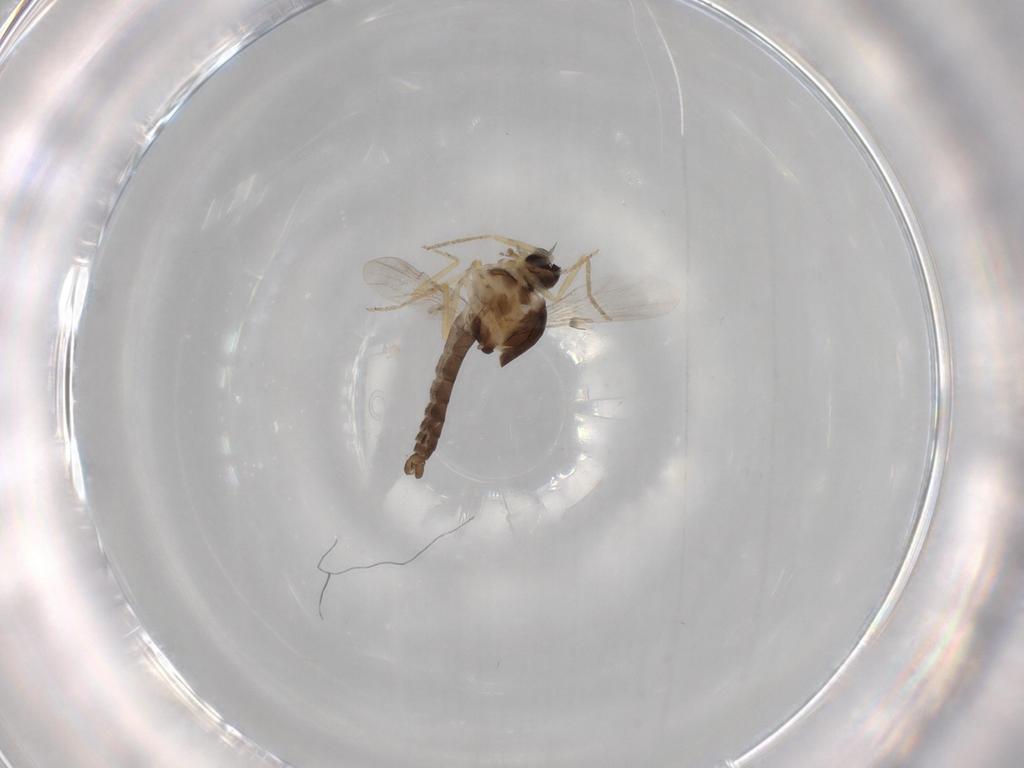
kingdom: Animalia
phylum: Arthropoda
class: Insecta
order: Diptera
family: Ceratopogonidae
